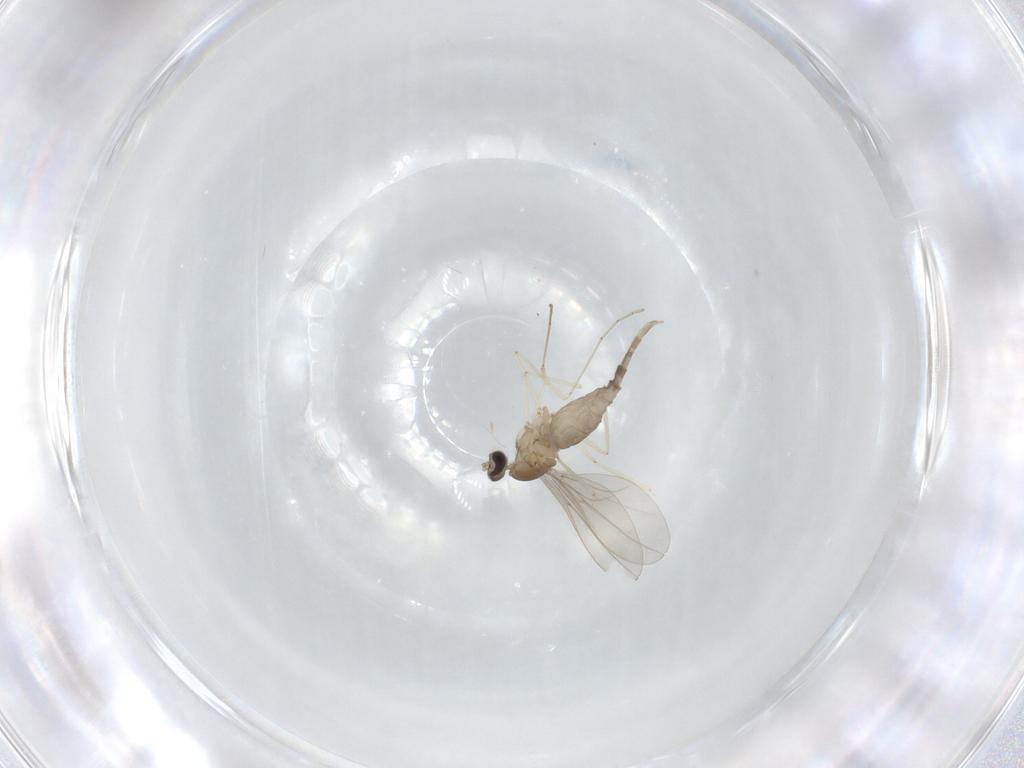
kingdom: Animalia
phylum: Arthropoda
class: Insecta
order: Diptera
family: Cecidomyiidae
